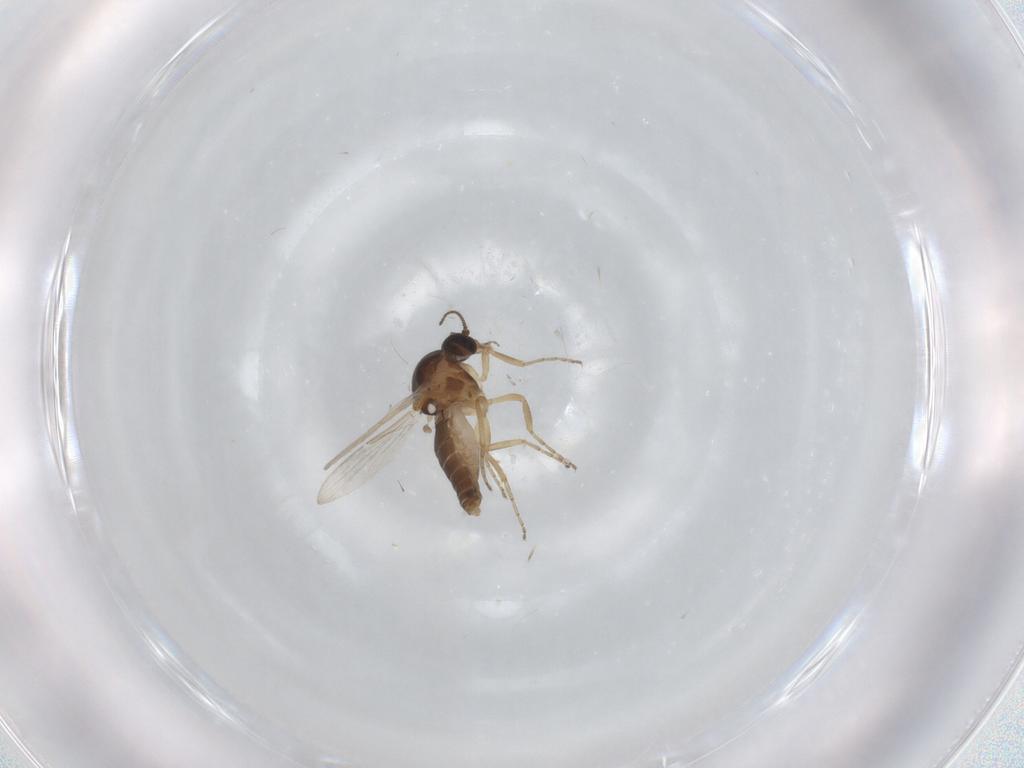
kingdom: Animalia
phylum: Arthropoda
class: Insecta
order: Diptera
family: Ceratopogonidae
